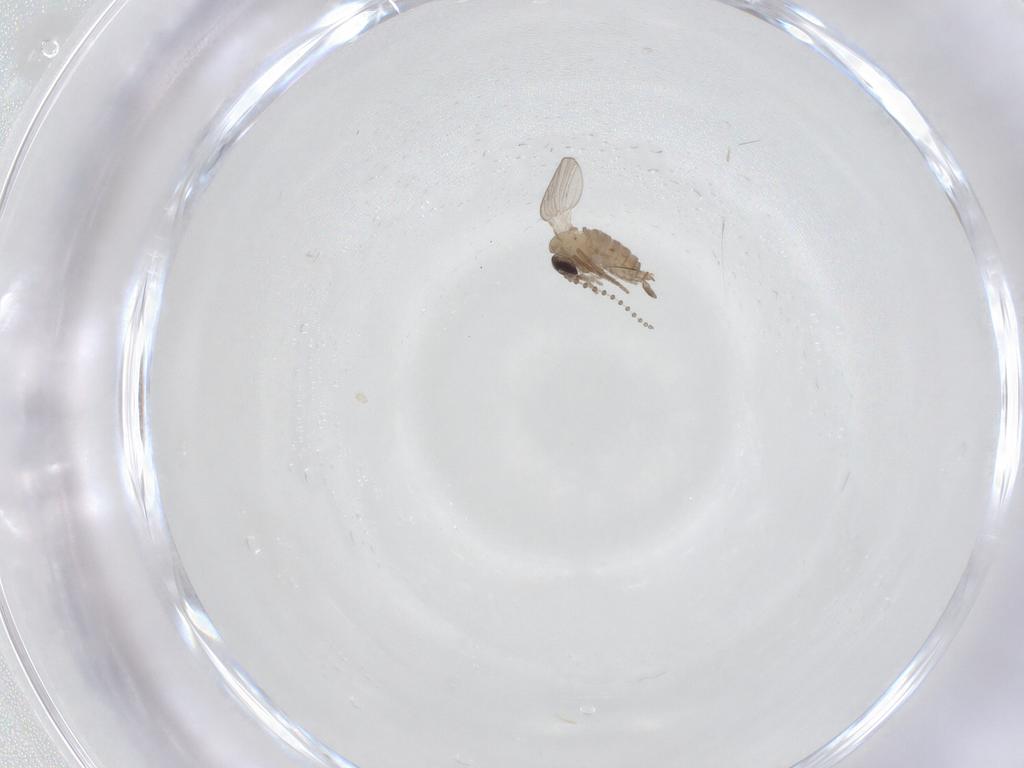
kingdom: Animalia
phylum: Arthropoda
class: Insecta
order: Diptera
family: Psychodidae
